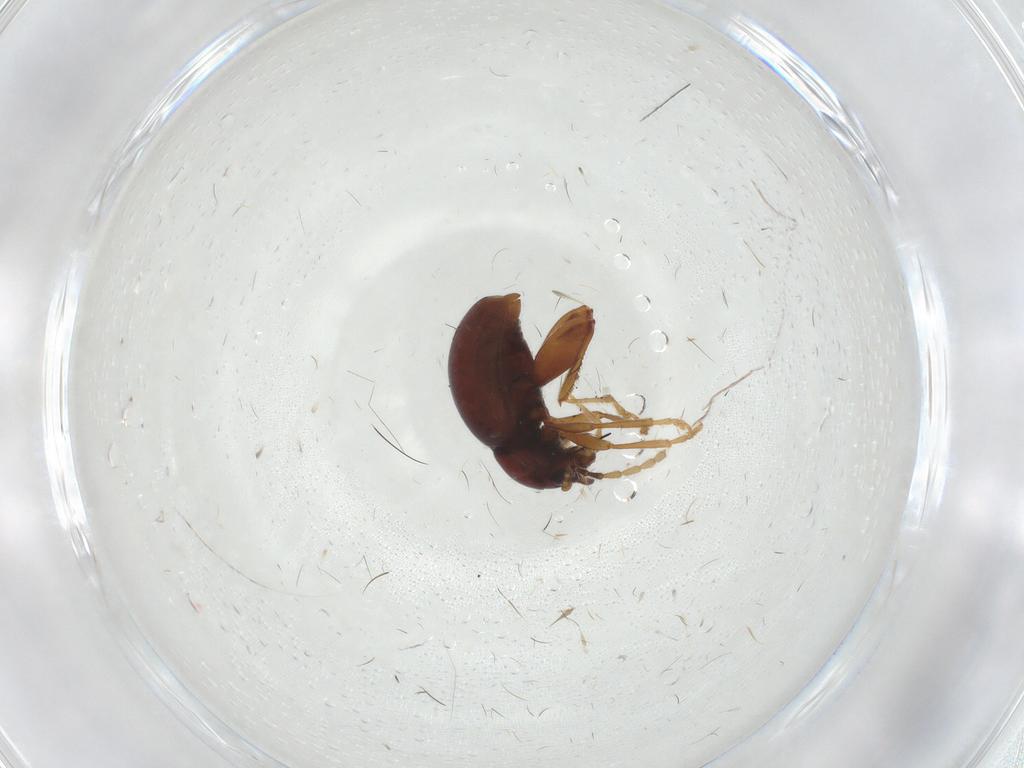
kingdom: Animalia
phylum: Arthropoda
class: Insecta
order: Coleoptera
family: Chrysomelidae
